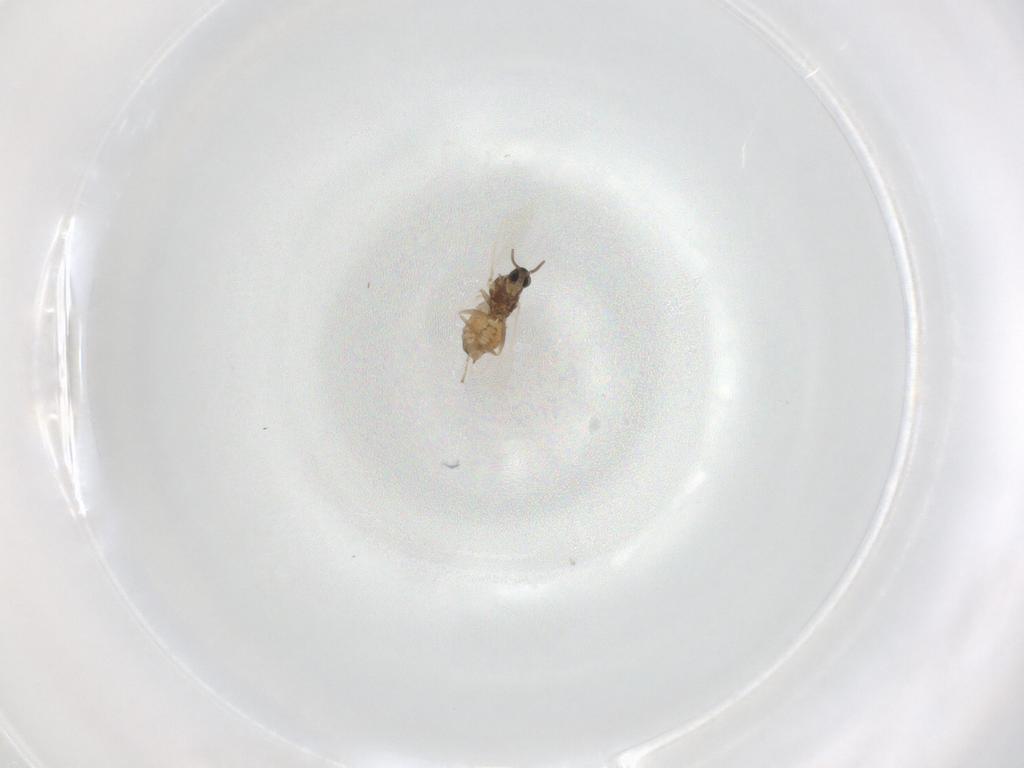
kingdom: Animalia
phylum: Arthropoda
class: Insecta
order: Diptera
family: Cecidomyiidae
